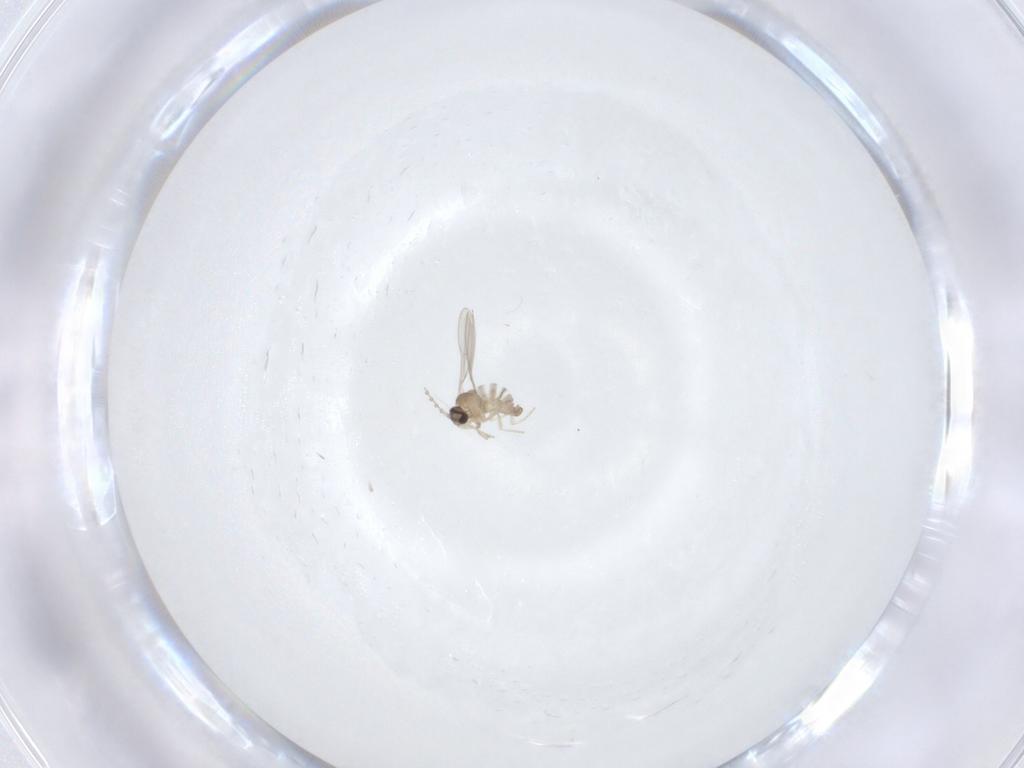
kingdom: Animalia
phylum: Arthropoda
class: Insecta
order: Diptera
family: Cecidomyiidae
